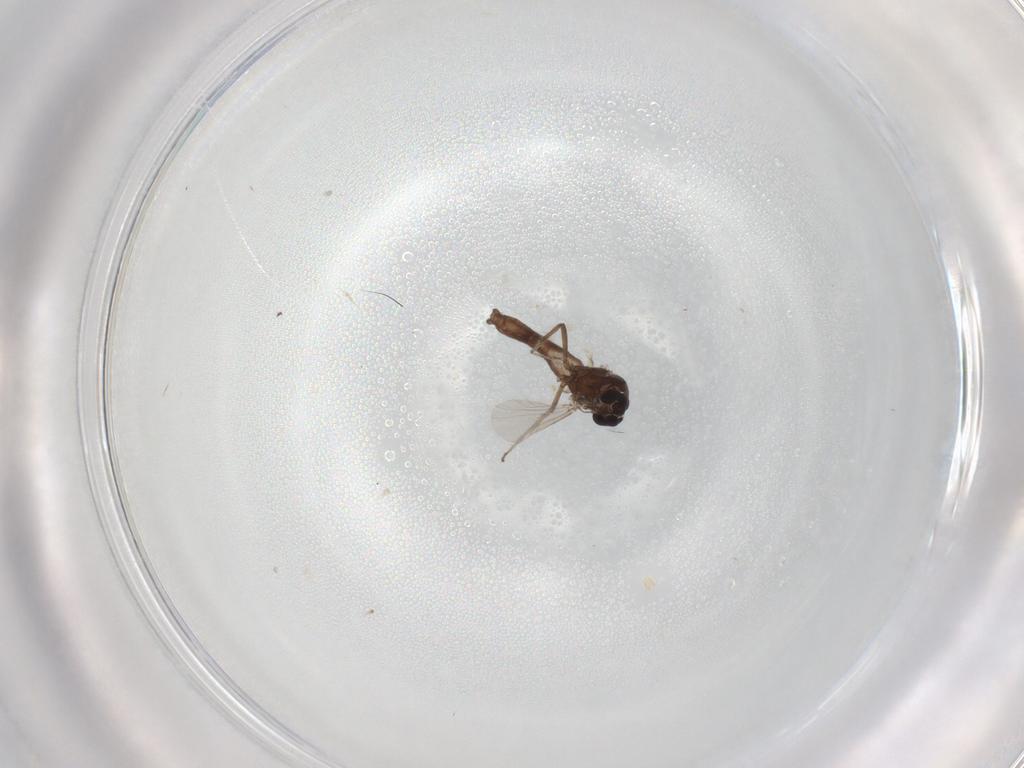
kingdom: Animalia
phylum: Arthropoda
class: Insecta
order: Diptera
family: Ceratopogonidae
